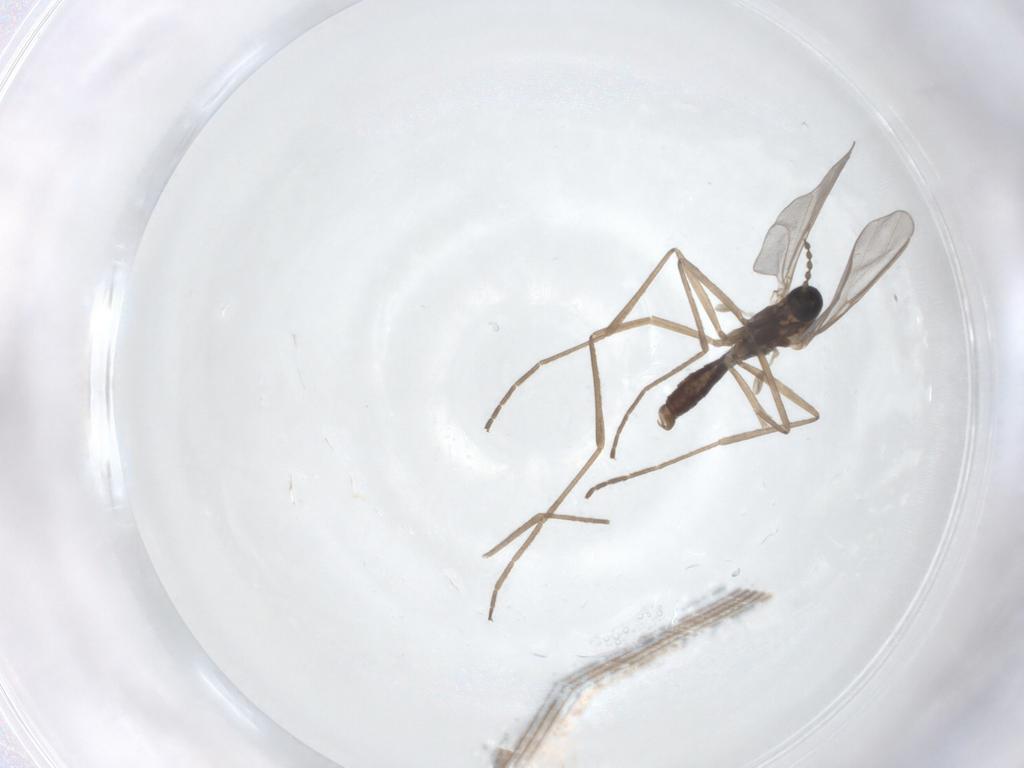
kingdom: Animalia
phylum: Arthropoda
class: Insecta
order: Diptera
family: Cecidomyiidae
